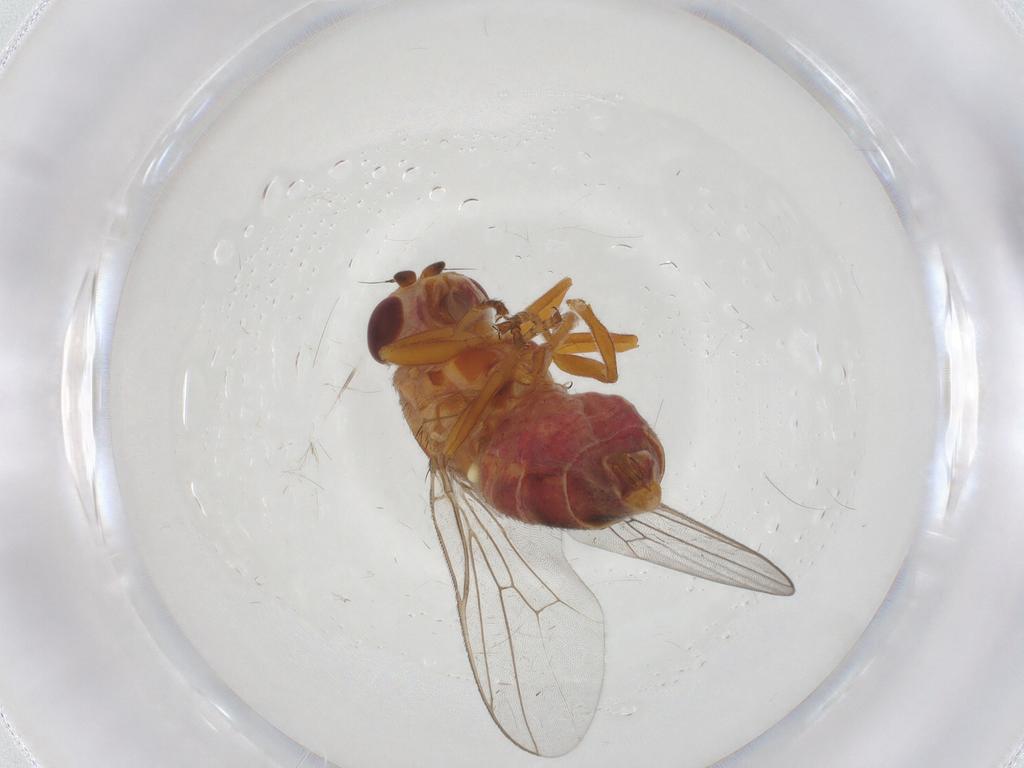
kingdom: Animalia
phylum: Arthropoda
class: Insecta
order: Diptera
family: Chloropidae
